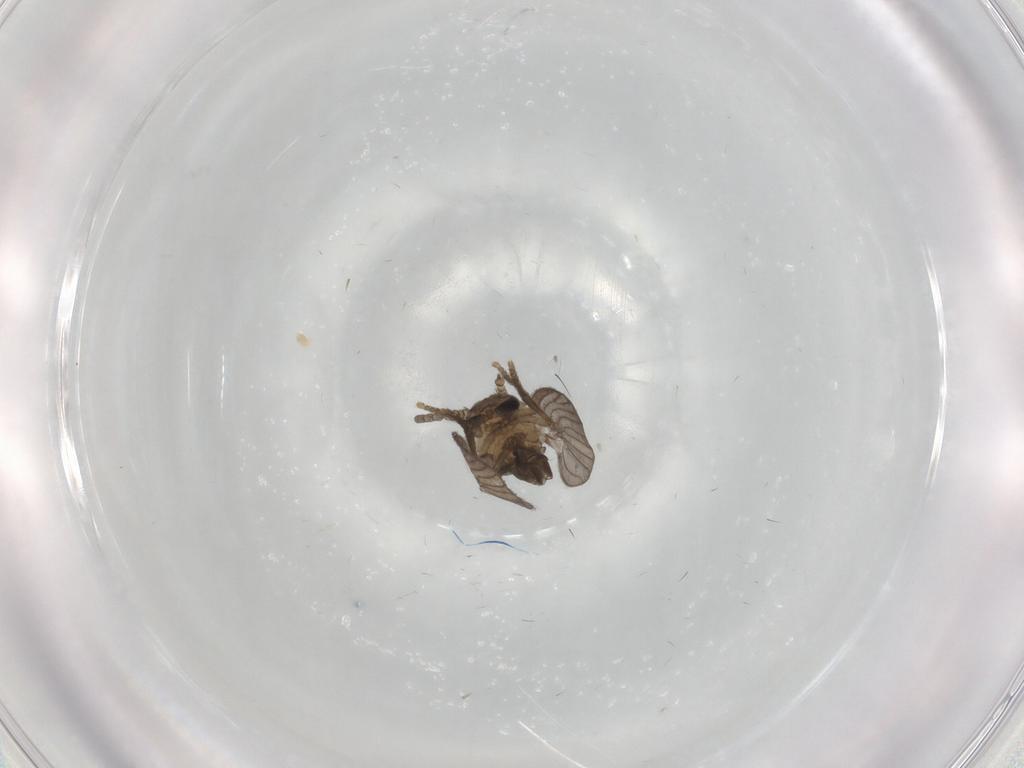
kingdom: Animalia
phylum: Arthropoda
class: Insecta
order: Diptera
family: Psychodidae
